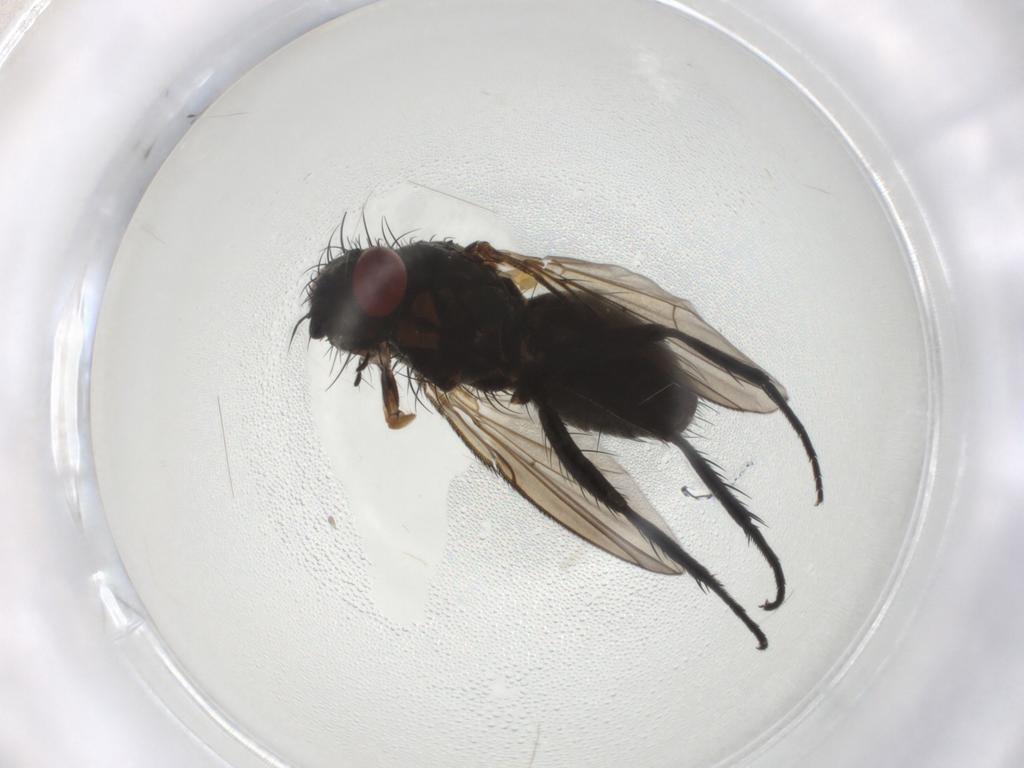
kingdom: Animalia
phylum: Arthropoda
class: Insecta
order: Diptera
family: Tachinidae
